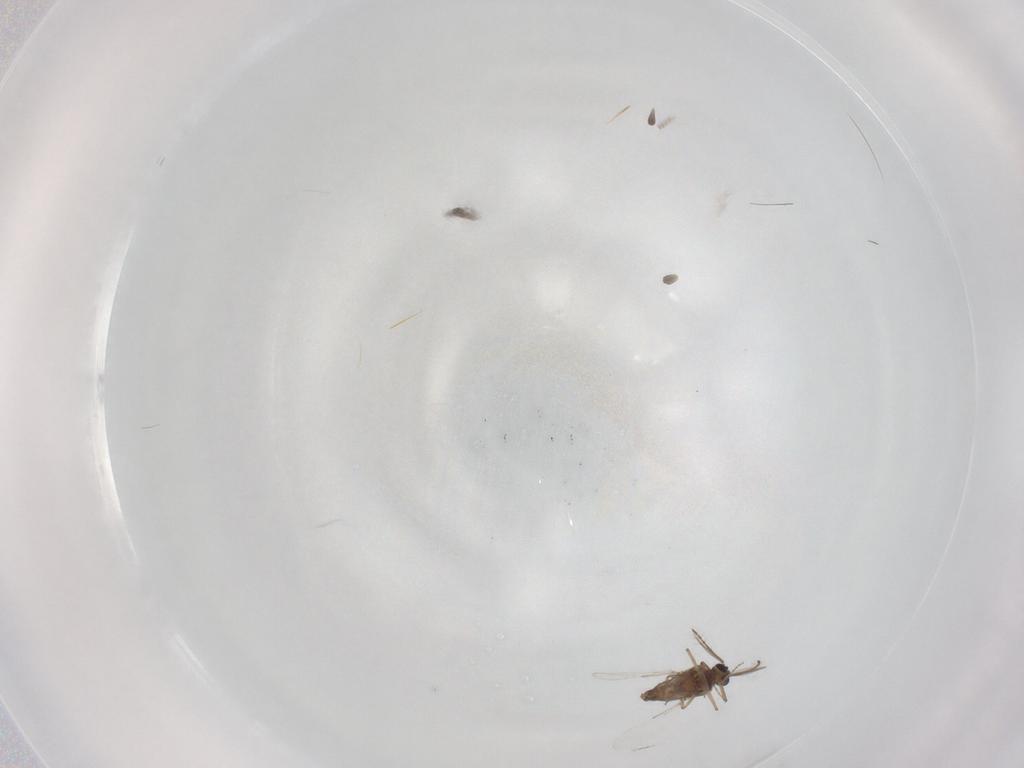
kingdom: Animalia
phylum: Arthropoda
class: Insecta
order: Diptera
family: Ceratopogonidae
